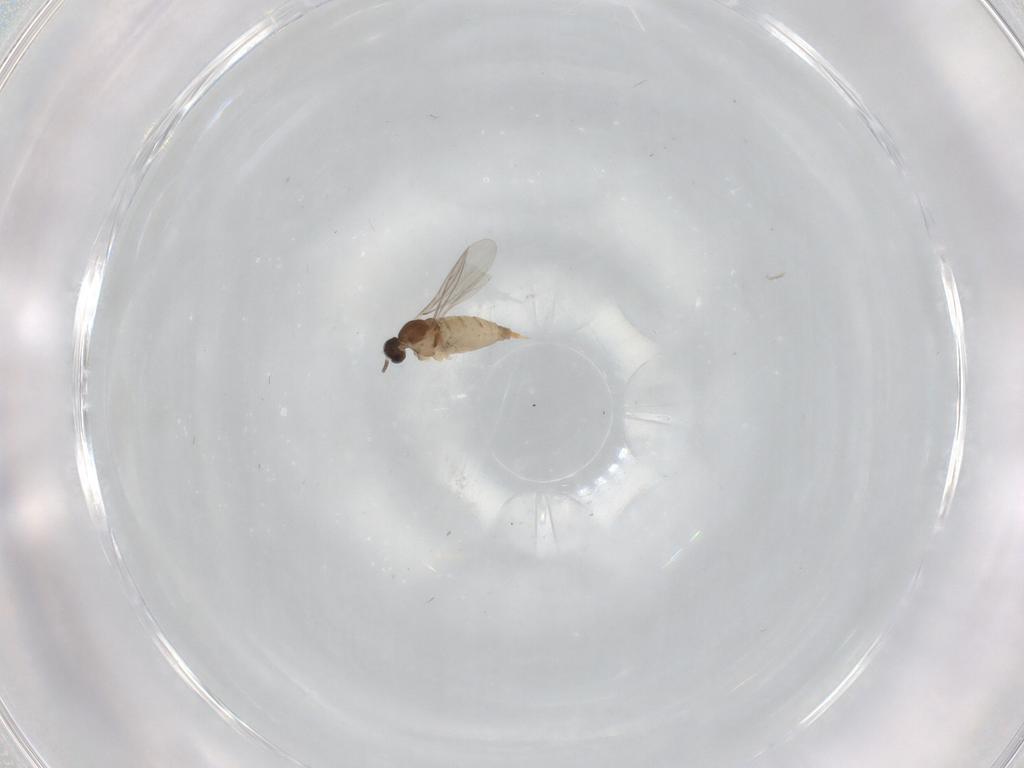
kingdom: Animalia
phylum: Arthropoda
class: Insecta
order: Diptera
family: Cecidomyiidae
